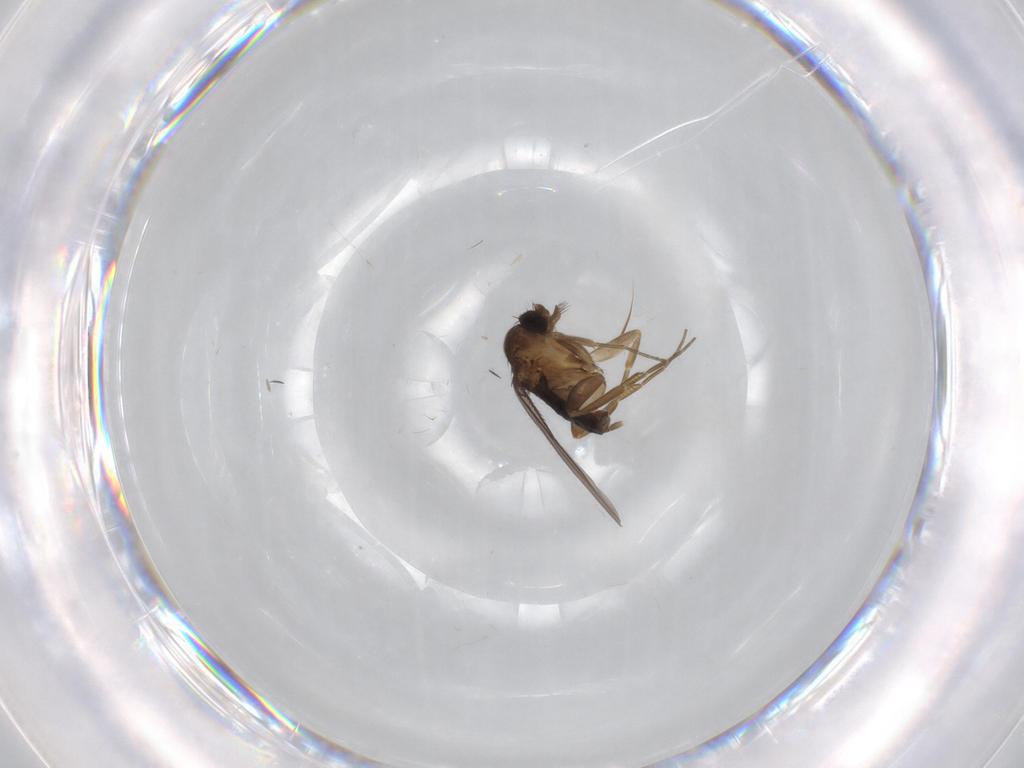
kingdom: Animalia
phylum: Arthropoda
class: Insecta
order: Diptera
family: Phoridae
